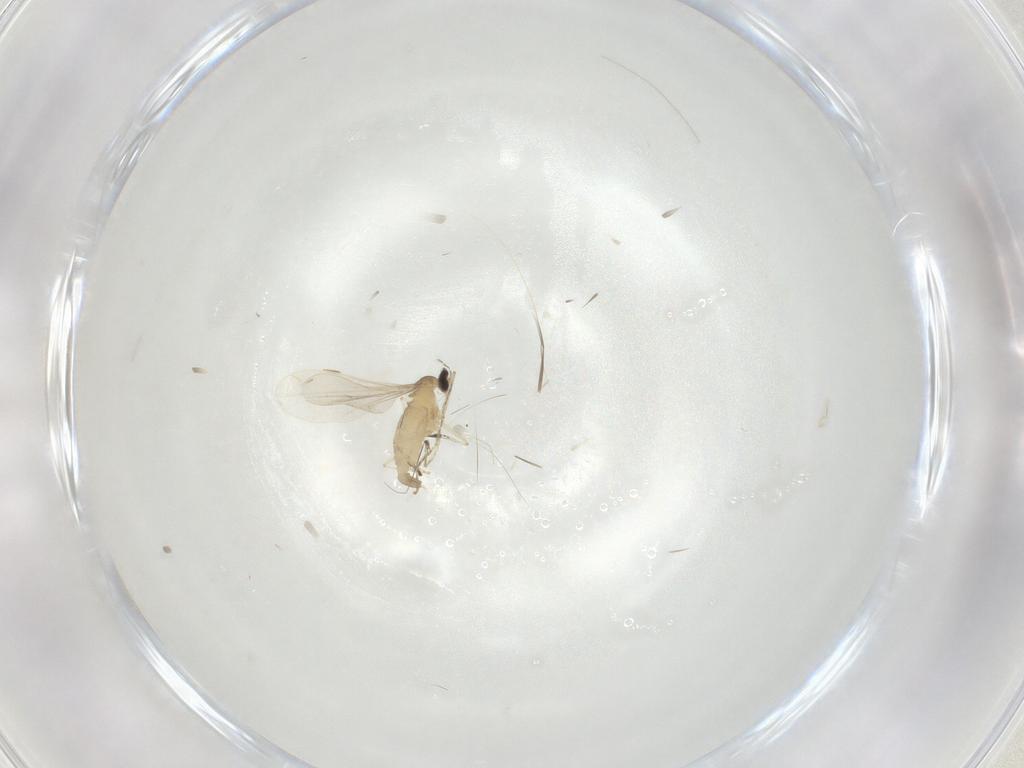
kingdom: Animalia
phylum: Arthropoda
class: Insecta
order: Diptera
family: Cecidomyiidae
